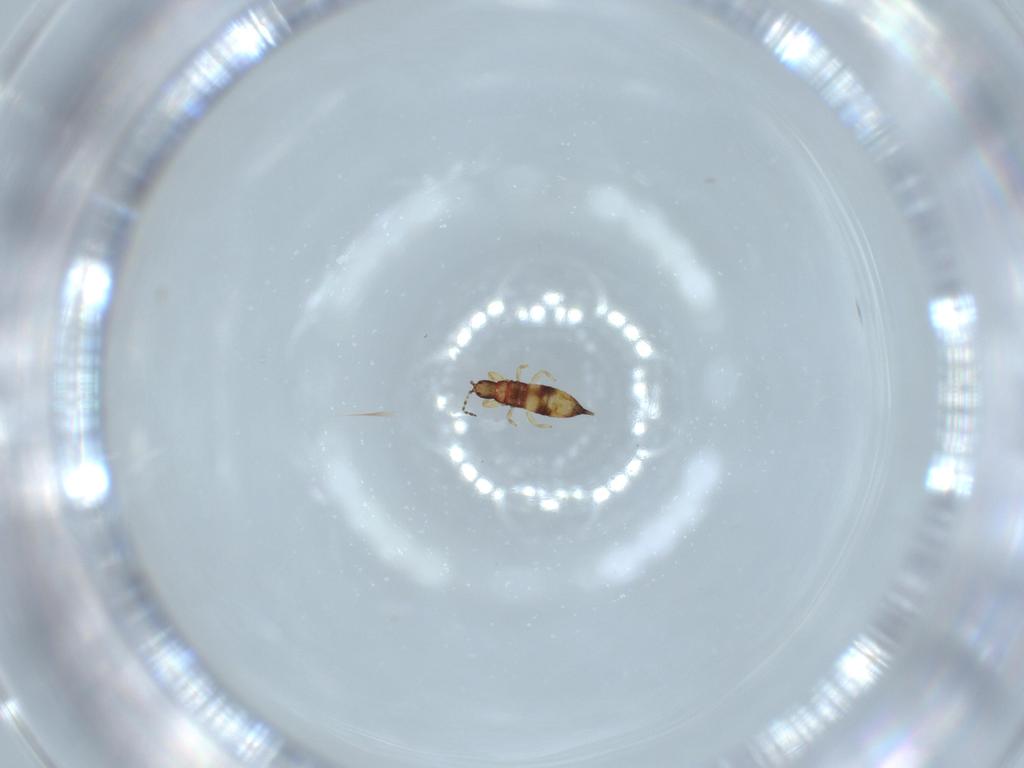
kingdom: Animalia
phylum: Arthropoda
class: Insecta
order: Thysanoptera
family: Phlaeothripidae
